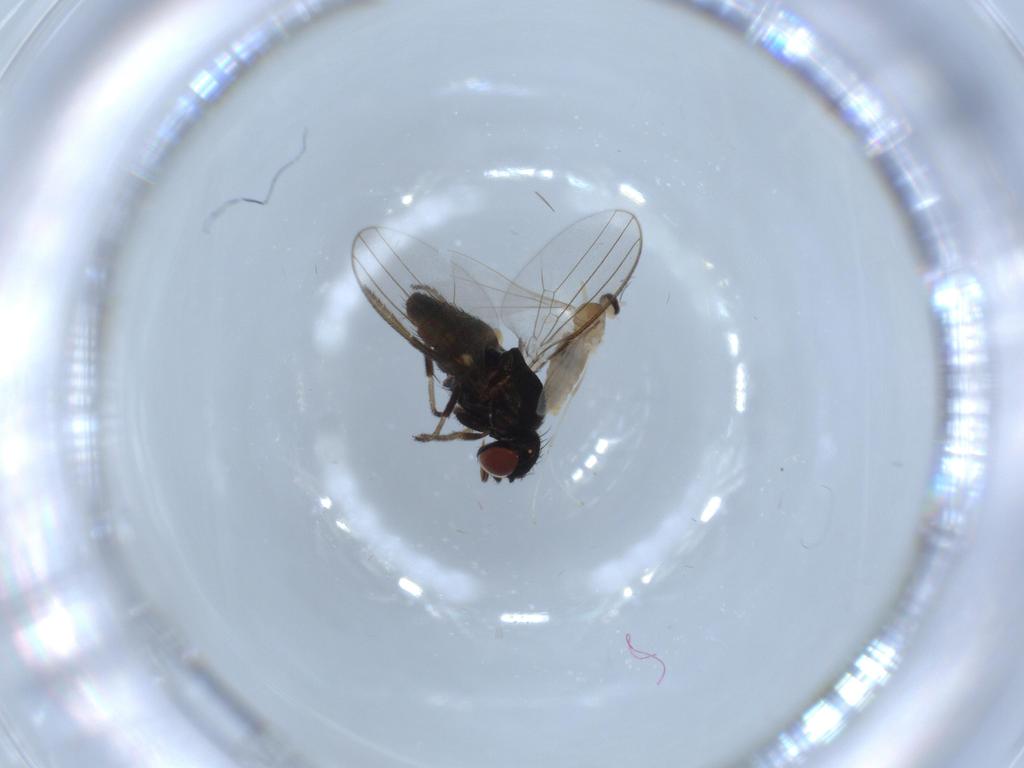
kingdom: Animalia
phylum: Arthropoda
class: Insecta
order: Diptera
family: Milichiidae
